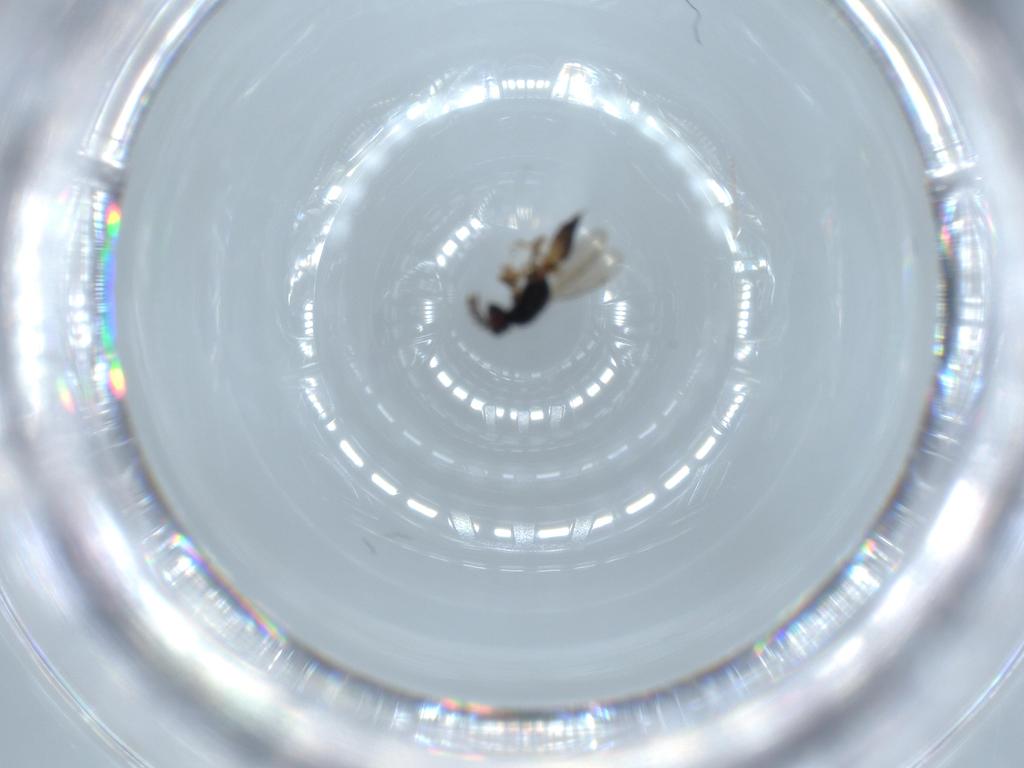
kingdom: Animalia
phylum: Arthropoda
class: Insecta
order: Hymenoptera
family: Eulophidae
